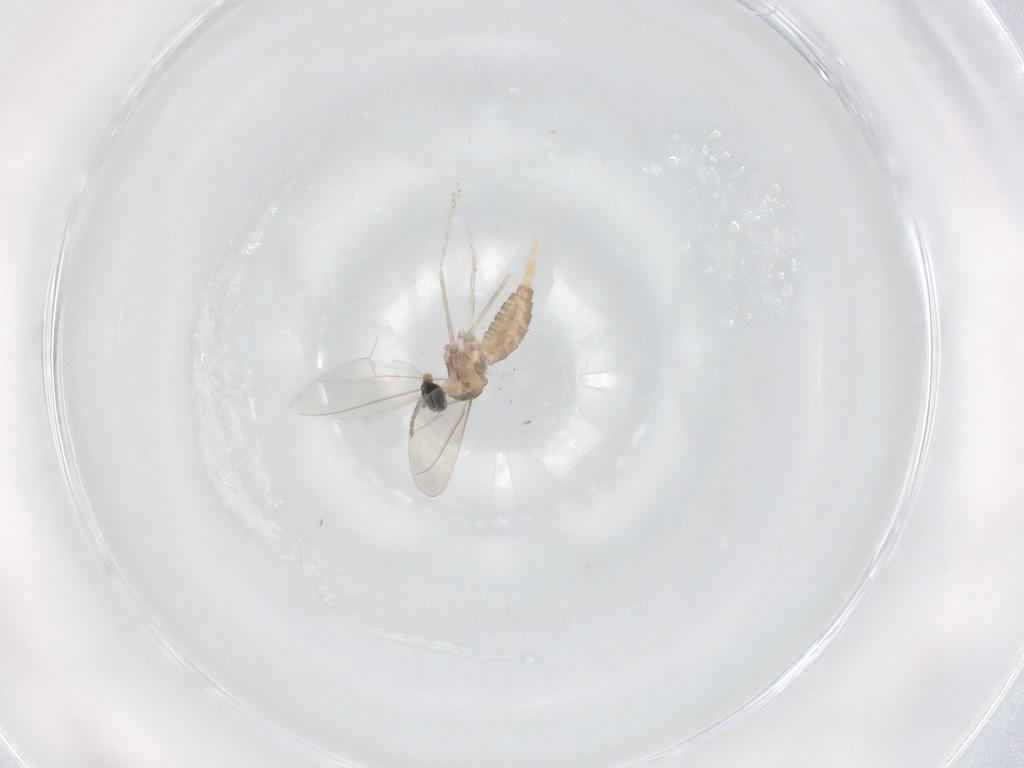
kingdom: Animalia
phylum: Arthropoda
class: Insecta
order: Diptera
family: Cecidomyiidae
